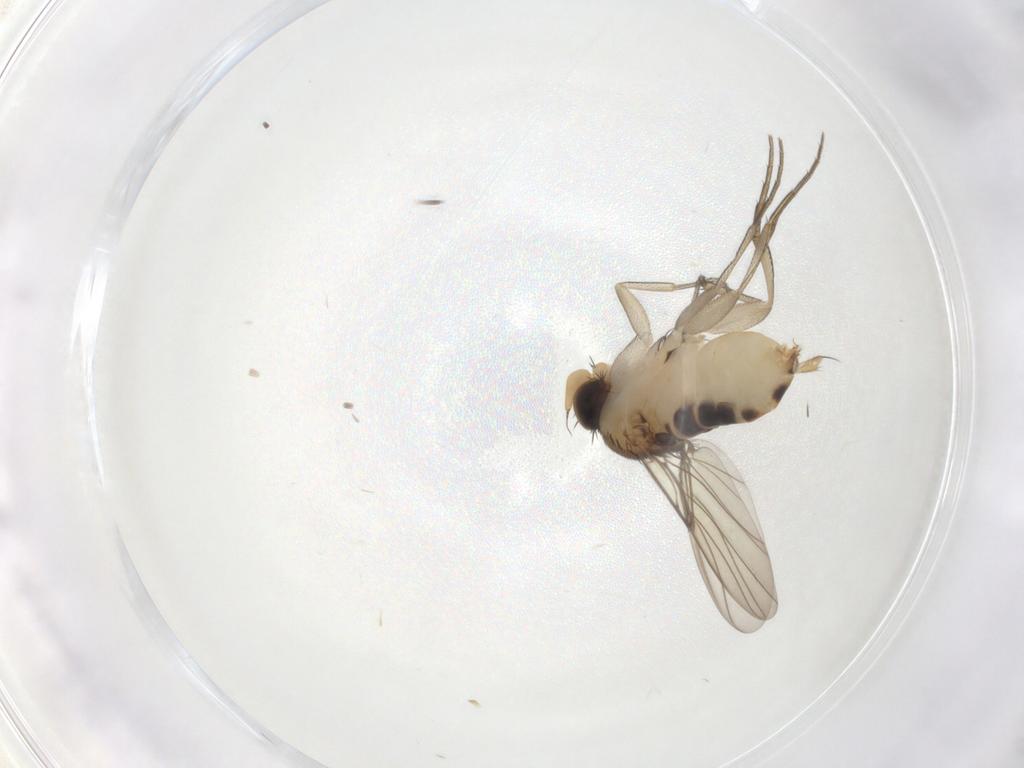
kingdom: Animalia
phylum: Arthropoda
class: Insecta
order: Diptera
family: Phoridae
